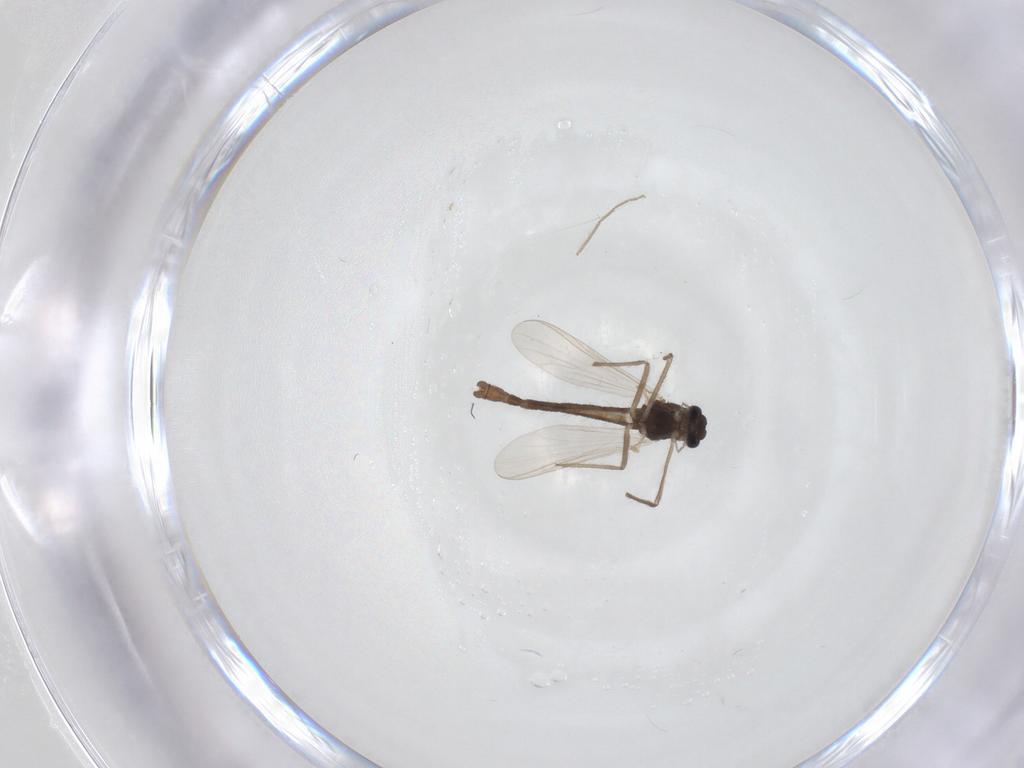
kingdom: Animalia
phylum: Arthropoda
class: Insecta
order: Diptera
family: Chironomidae
